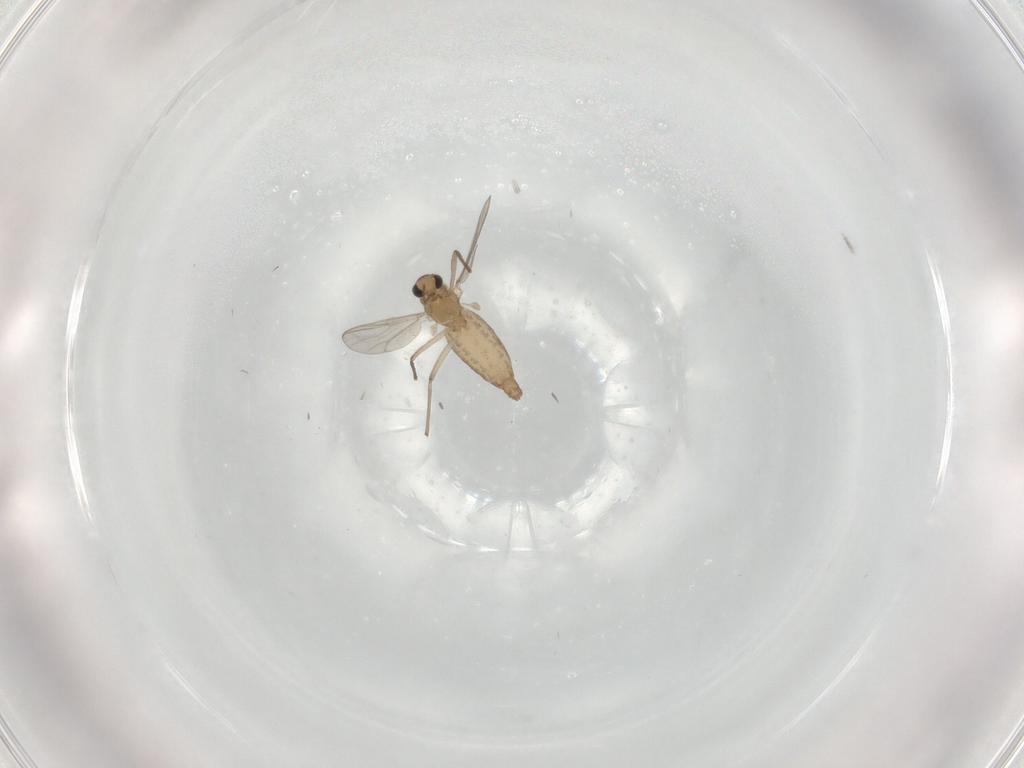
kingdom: Animalia
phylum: Arthropoda
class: Insecta
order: Diptera
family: Chironomidae
